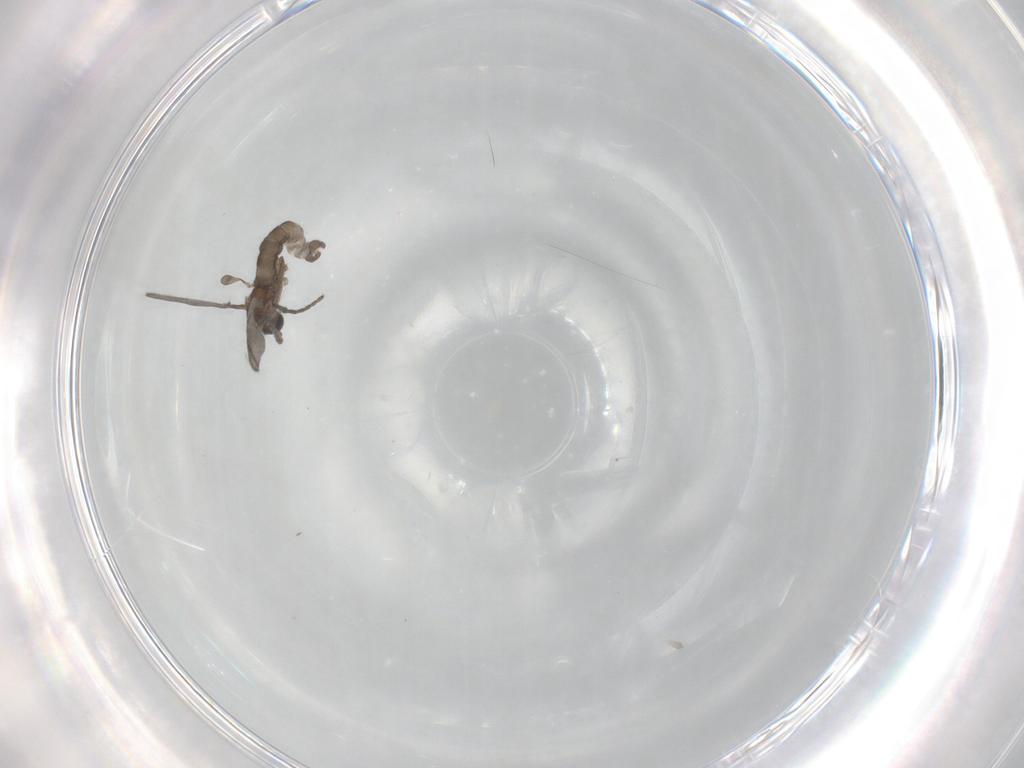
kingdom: Animalia
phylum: Arthropoda
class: Insecta
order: Diptera
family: Sciaridae
